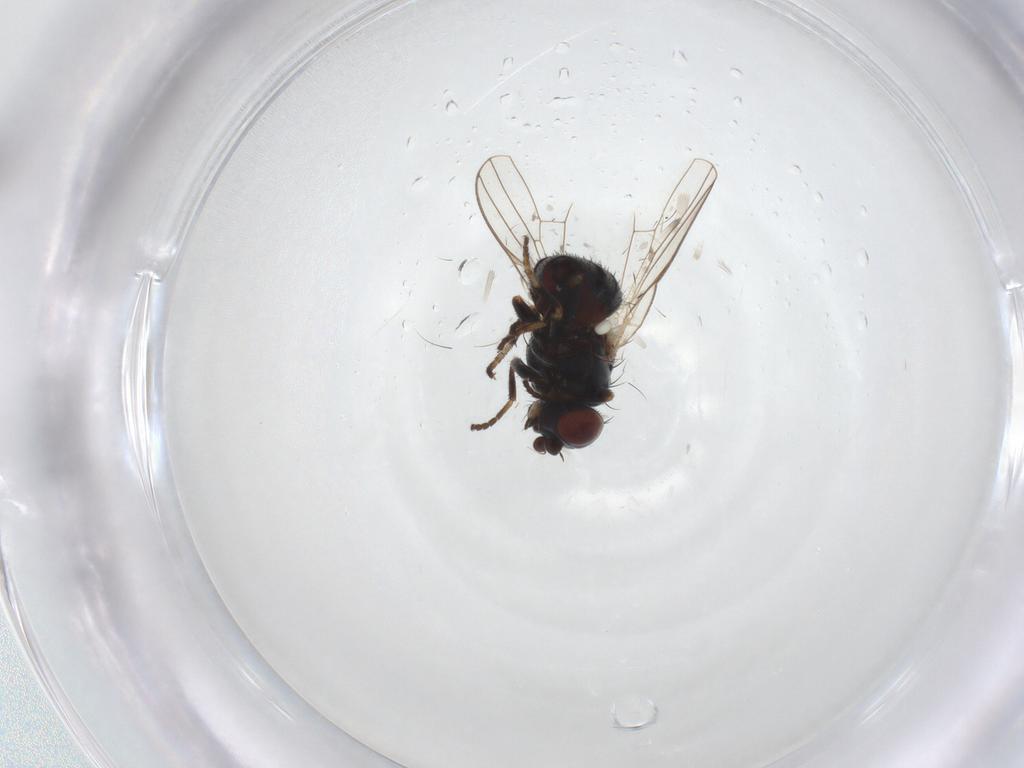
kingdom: Animalia
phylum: Arthropoda
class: Insecta
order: Diptera
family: Chamaemyiidae
